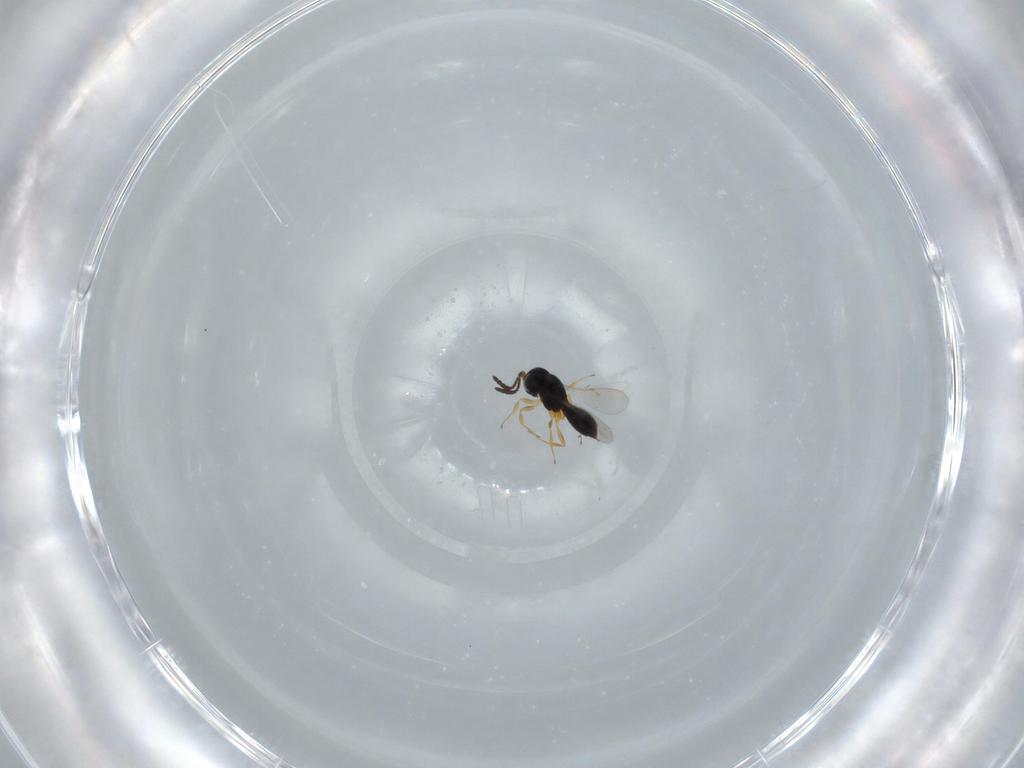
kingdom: Animalia
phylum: Arthropoda
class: Insecta
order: Hymenoptera
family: Scelionidae
